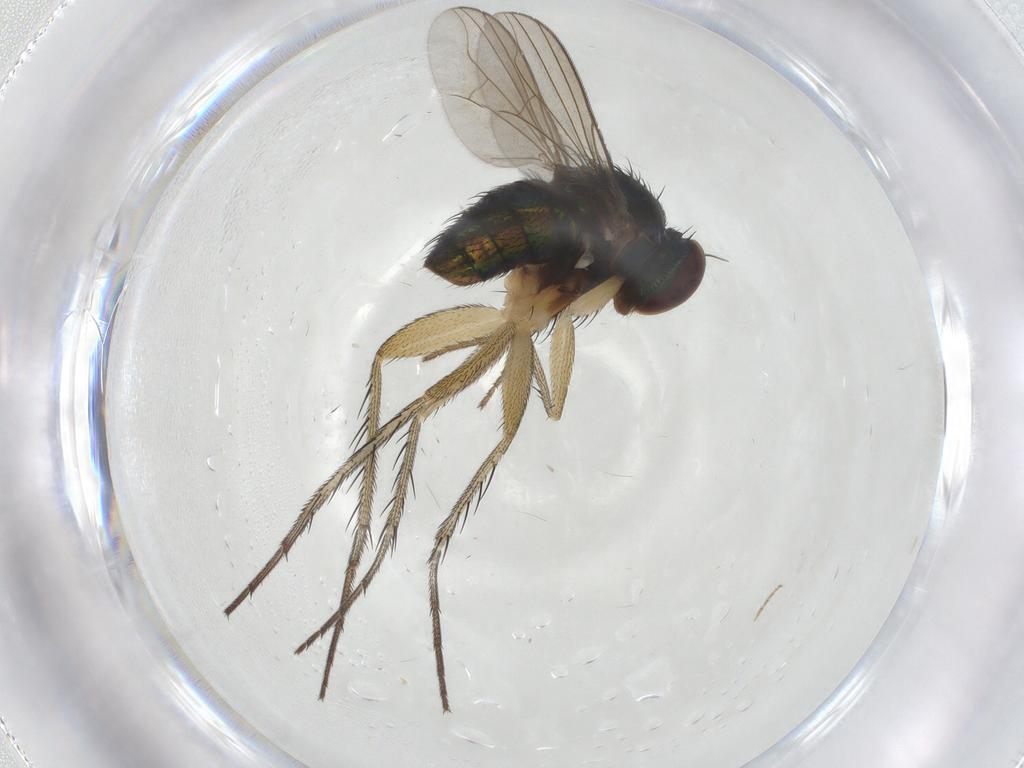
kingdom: Animalia
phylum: Arthropoda
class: Insecta
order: Diptera
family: Dolichopodidae
